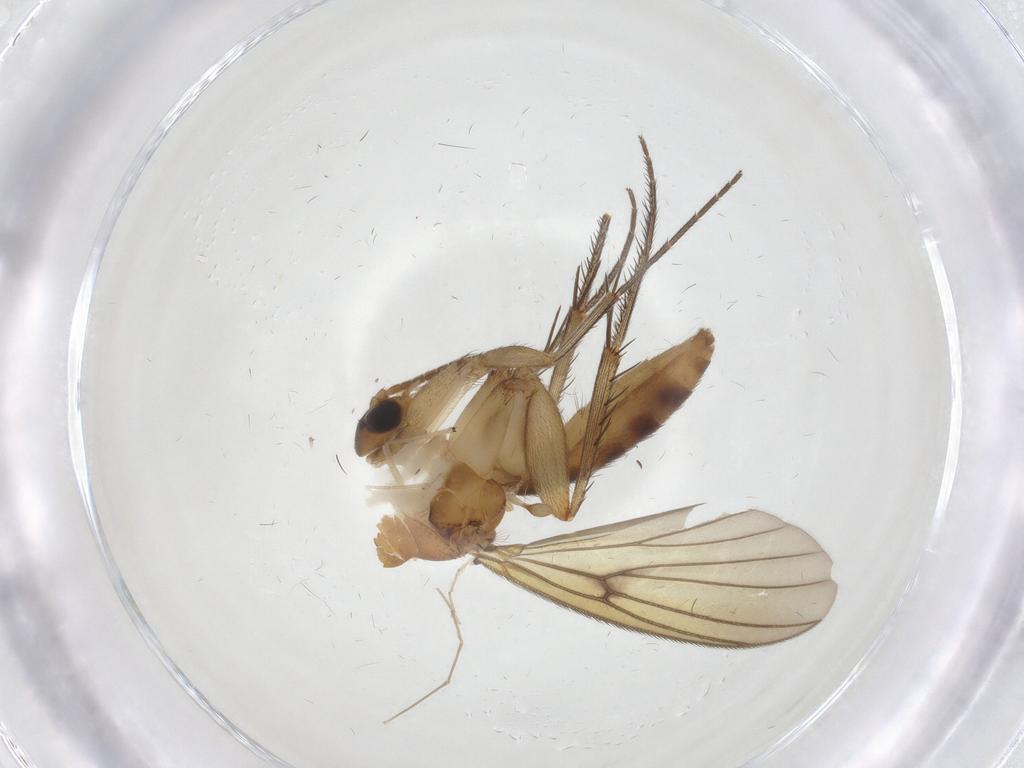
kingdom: Animalia
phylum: Arthropoda
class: Insecta
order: Diptera
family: Mycetophilidae
